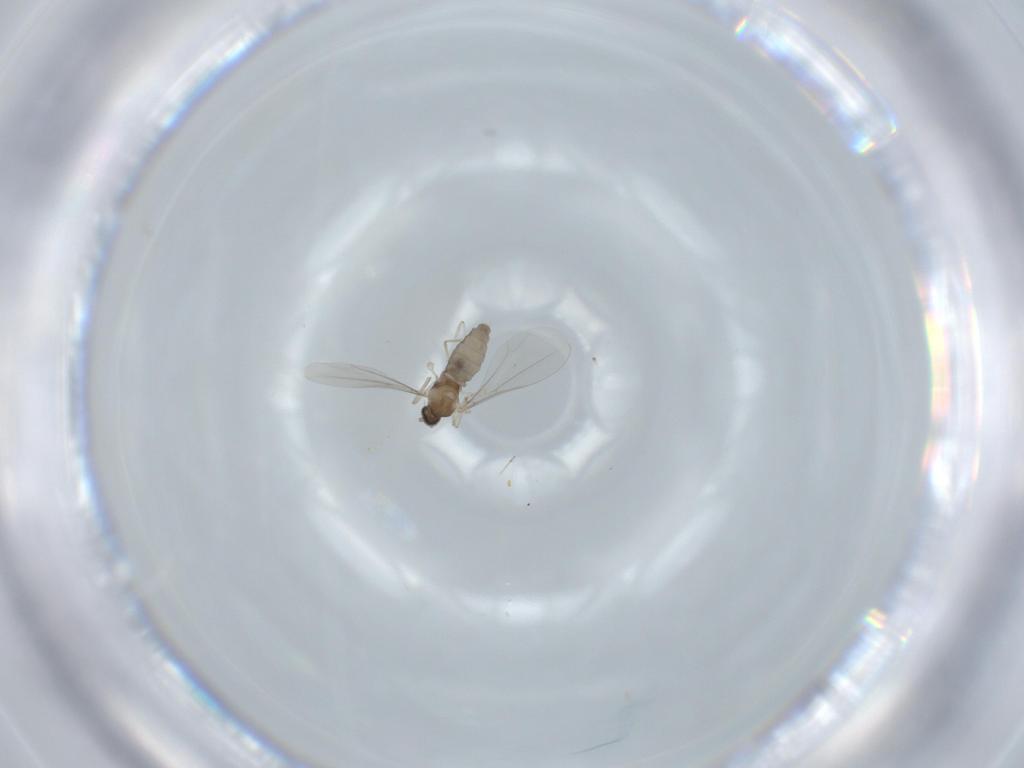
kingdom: Animalia
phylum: Arthropoda
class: Insecta
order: Diptera
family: Cecidomyiidae
